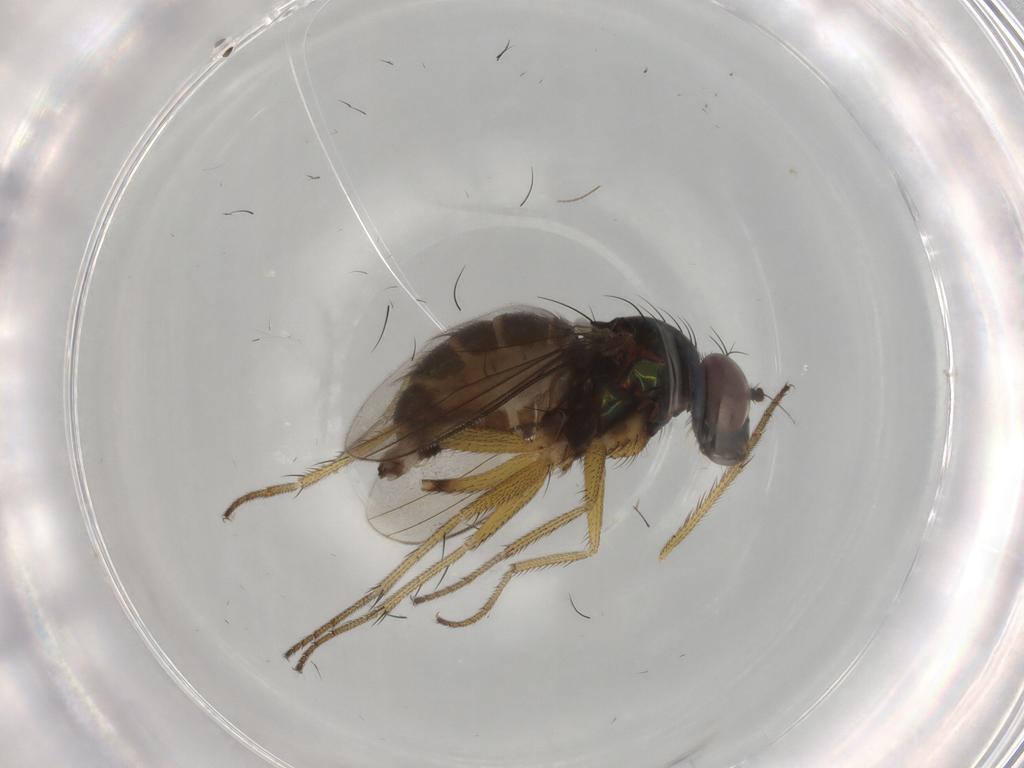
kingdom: Animalia
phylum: Arthropoda
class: Insecta
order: Diptera
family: Dolichopodidae
